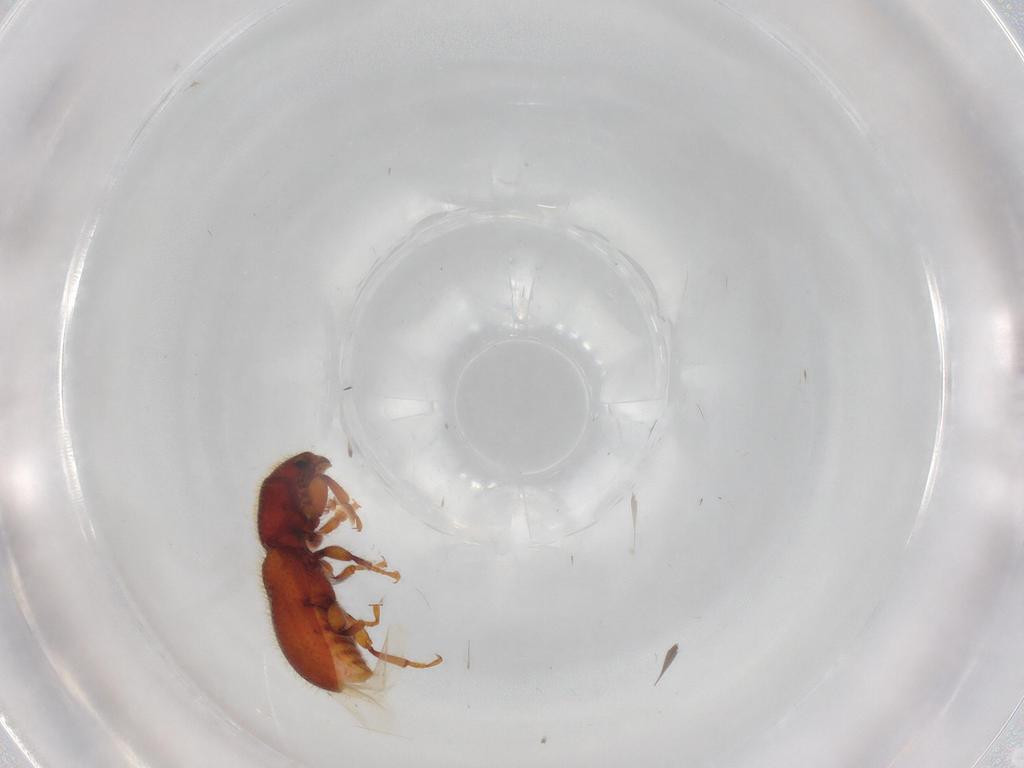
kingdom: Animalia
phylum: Arthropoda
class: Insecta
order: Coleoptera
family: Thanerocleridae
